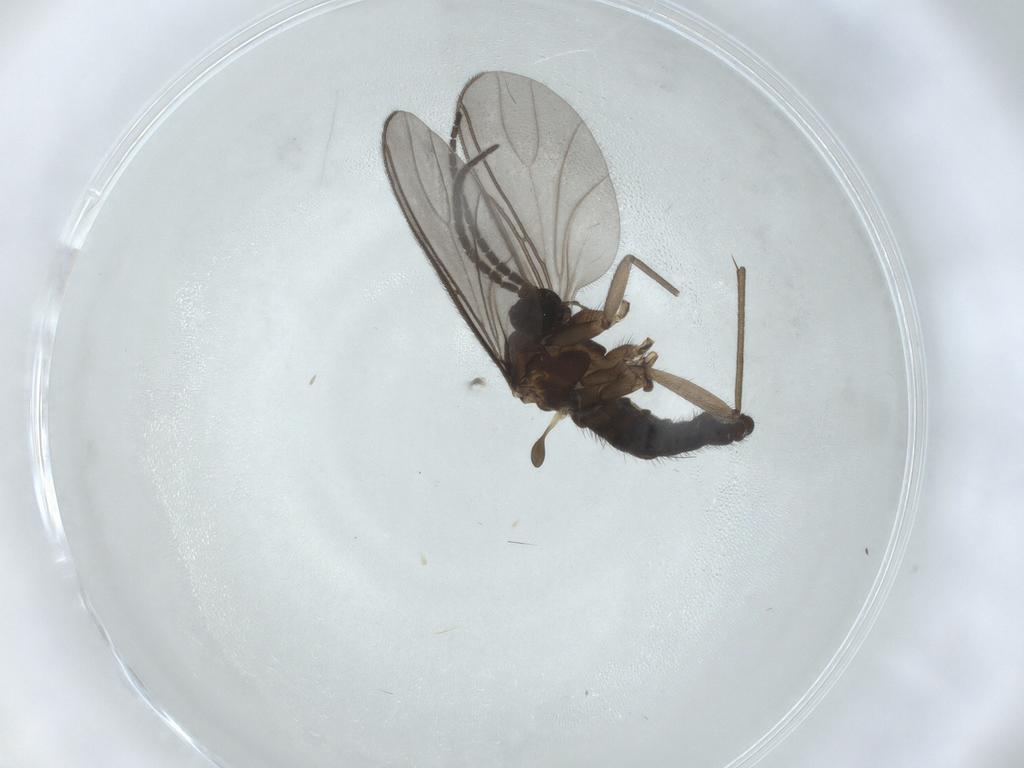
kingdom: Animalia
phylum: Arthropoda
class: Insecta
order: Diptera
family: Sciaridae
